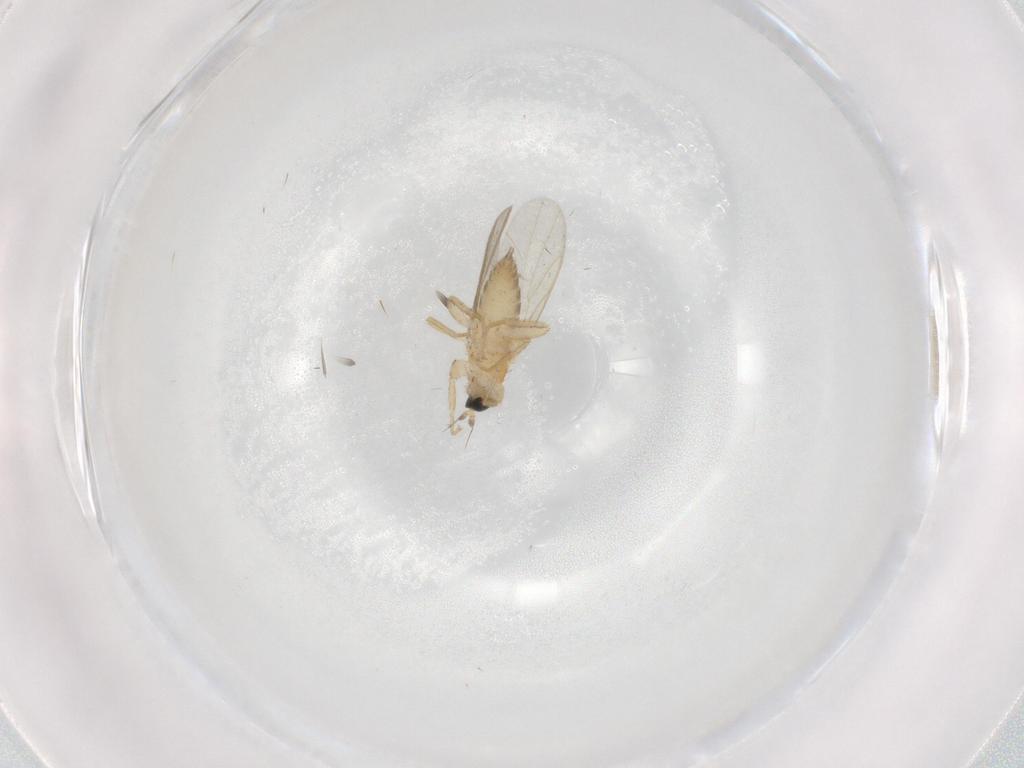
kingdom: Animalia
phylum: Arthropoda
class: Insecta
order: Diptera
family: Hybotidae
